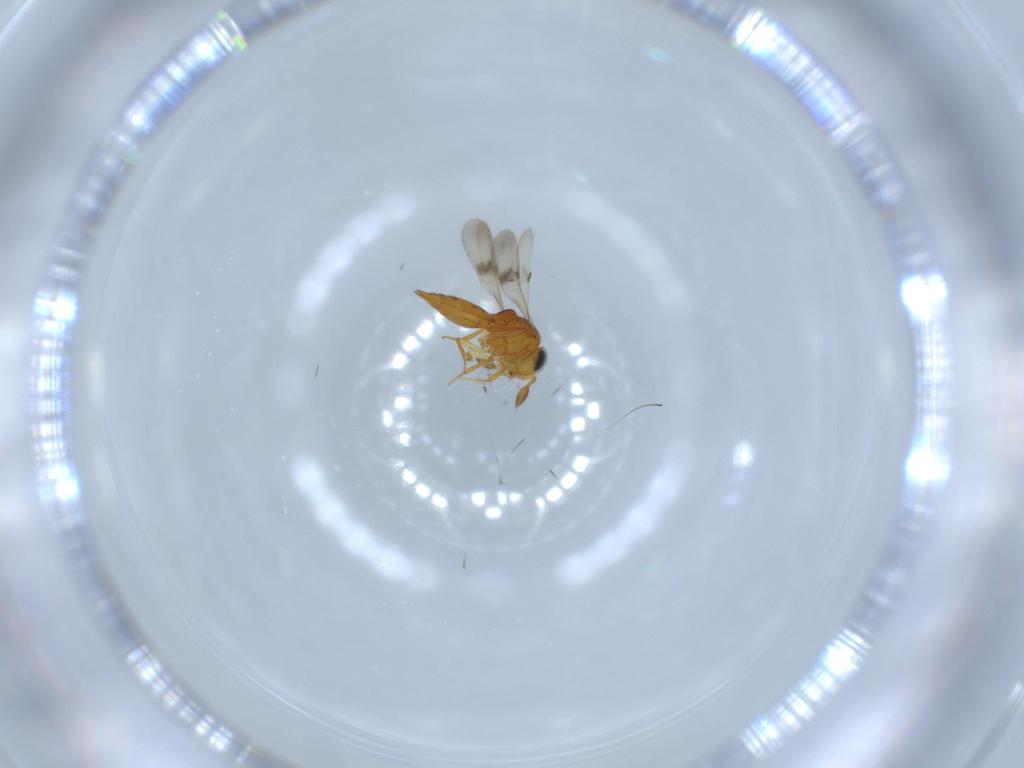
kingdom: Animalia
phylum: Arthropoda
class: Insecta
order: Hymenoptera
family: Scelionidae
